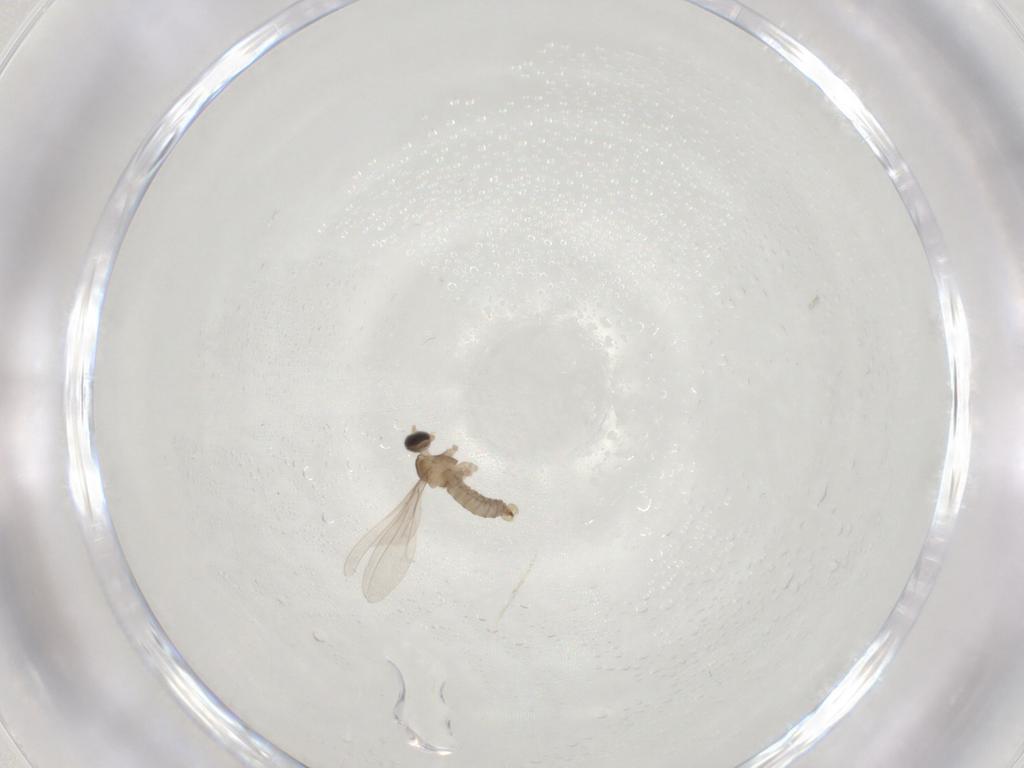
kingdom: Animalia
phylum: Arthropoda
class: Insecta
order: Diptera
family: Cecidomyiidae
